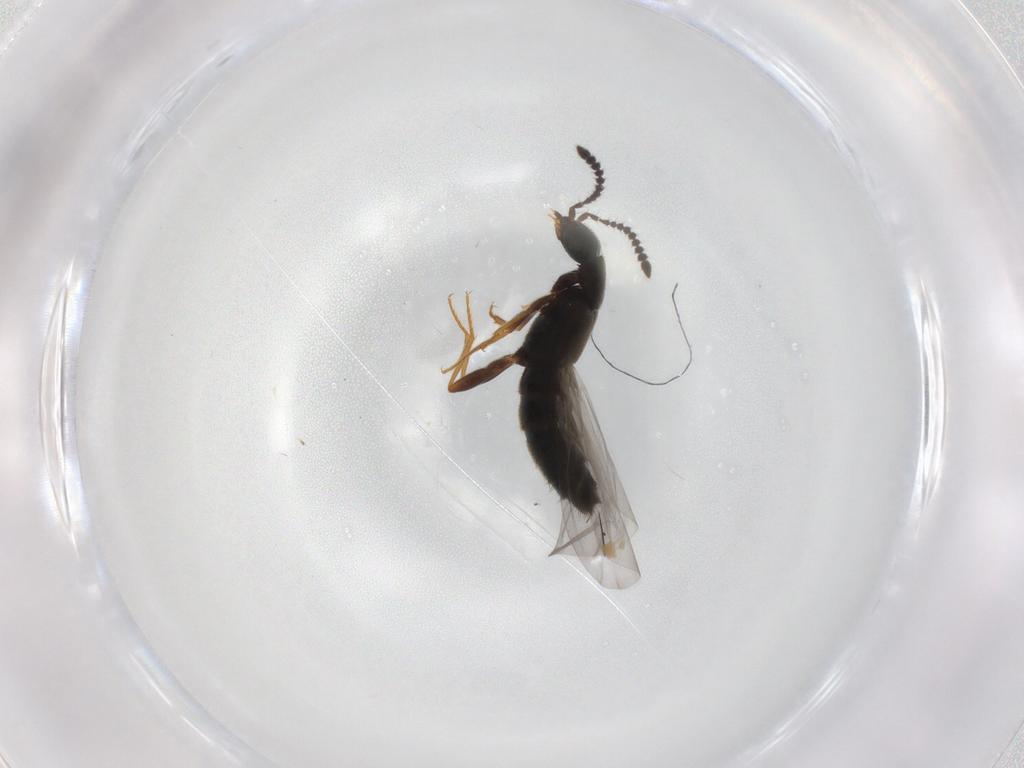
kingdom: Animalia
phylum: Arthropoda
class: Insecta
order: Coleoptera
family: Staphylinidae
